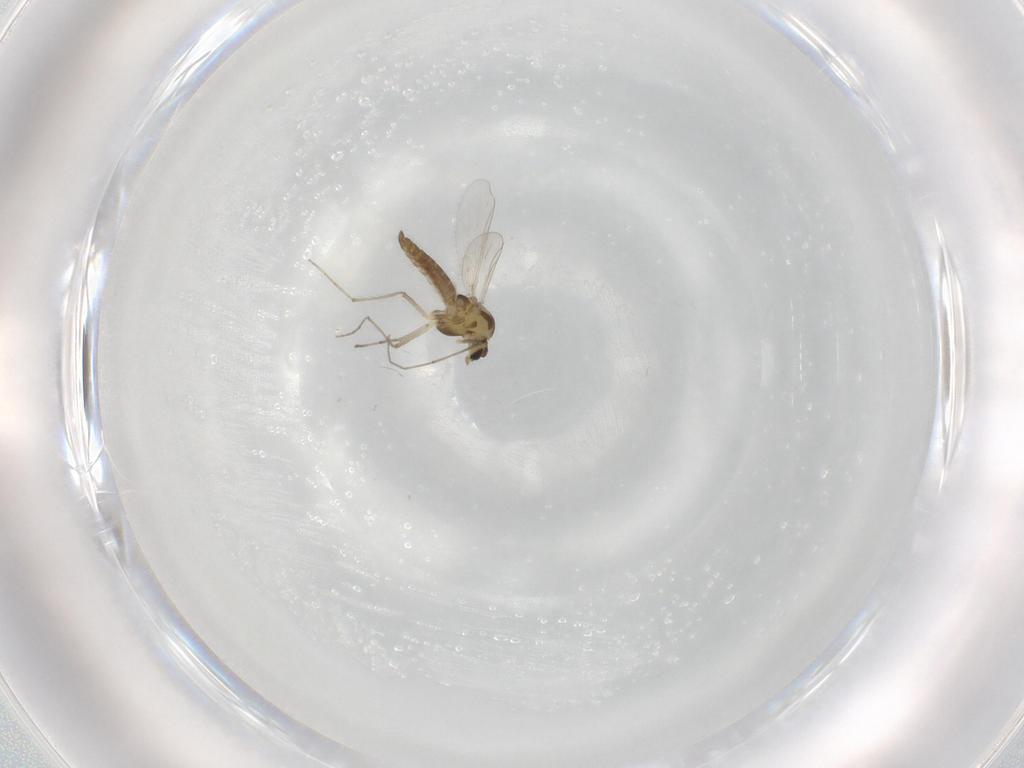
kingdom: Animalia
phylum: Arthropoda
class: Insecta
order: Diptera
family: Chironomidae
